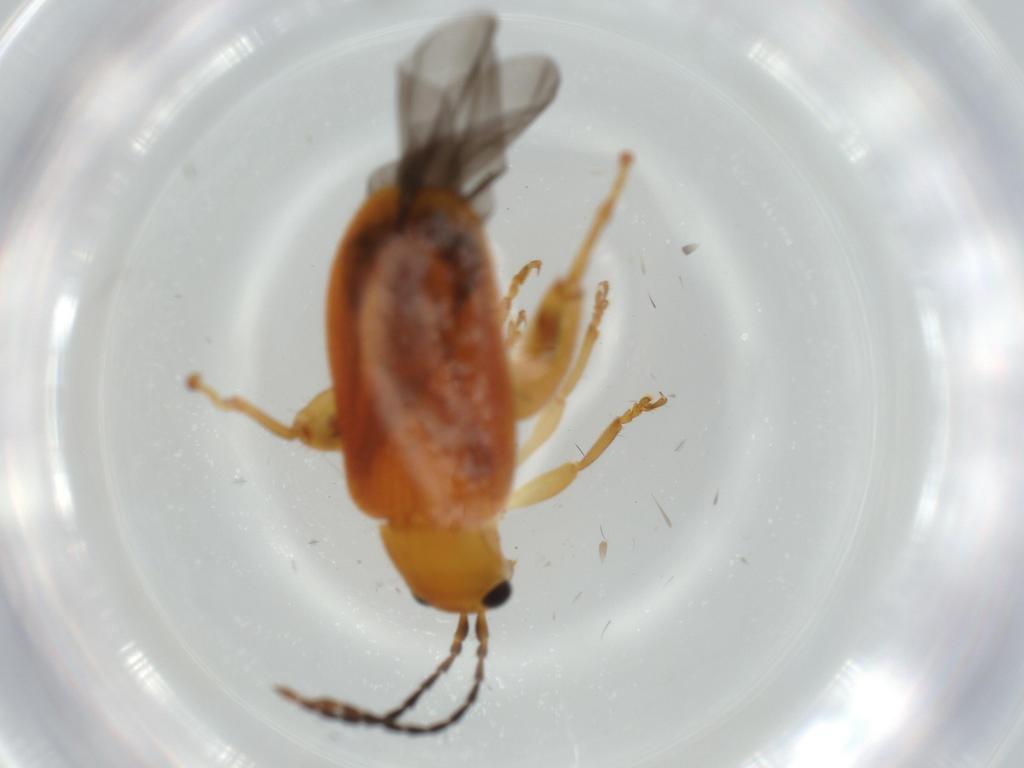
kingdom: Animalia
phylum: Arthropoda
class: Insecta
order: Coleoptera
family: Chrysomelidae
